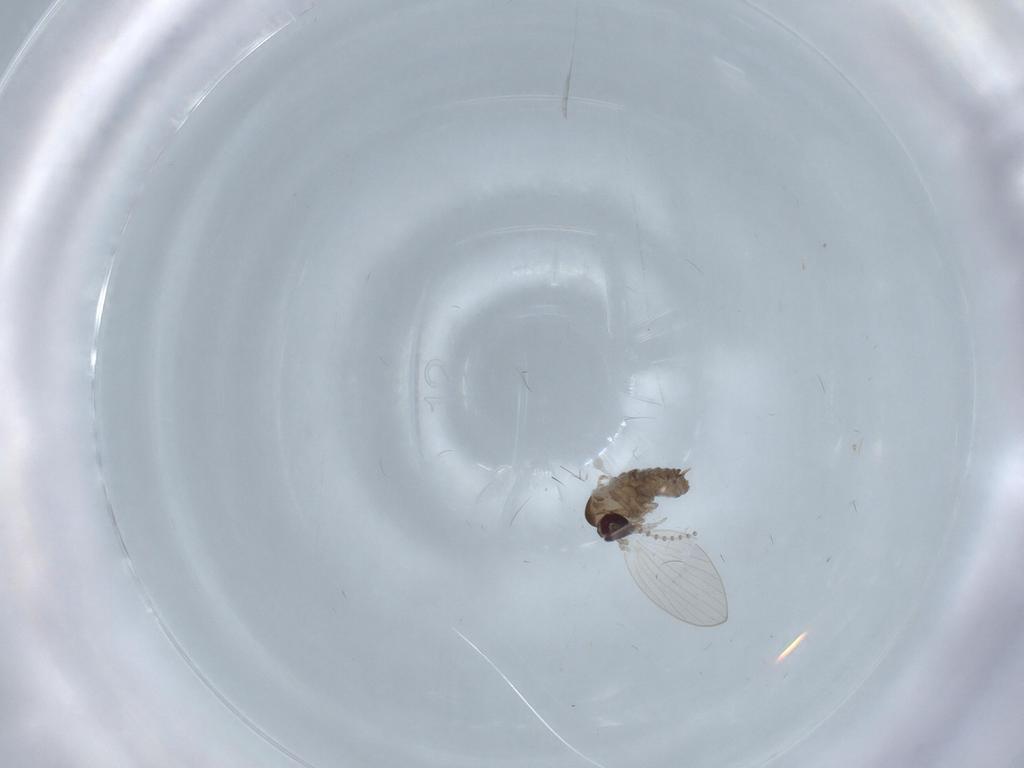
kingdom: Animalia
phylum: Arthropoda
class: Insecta
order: Diptera
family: Psychodidae
